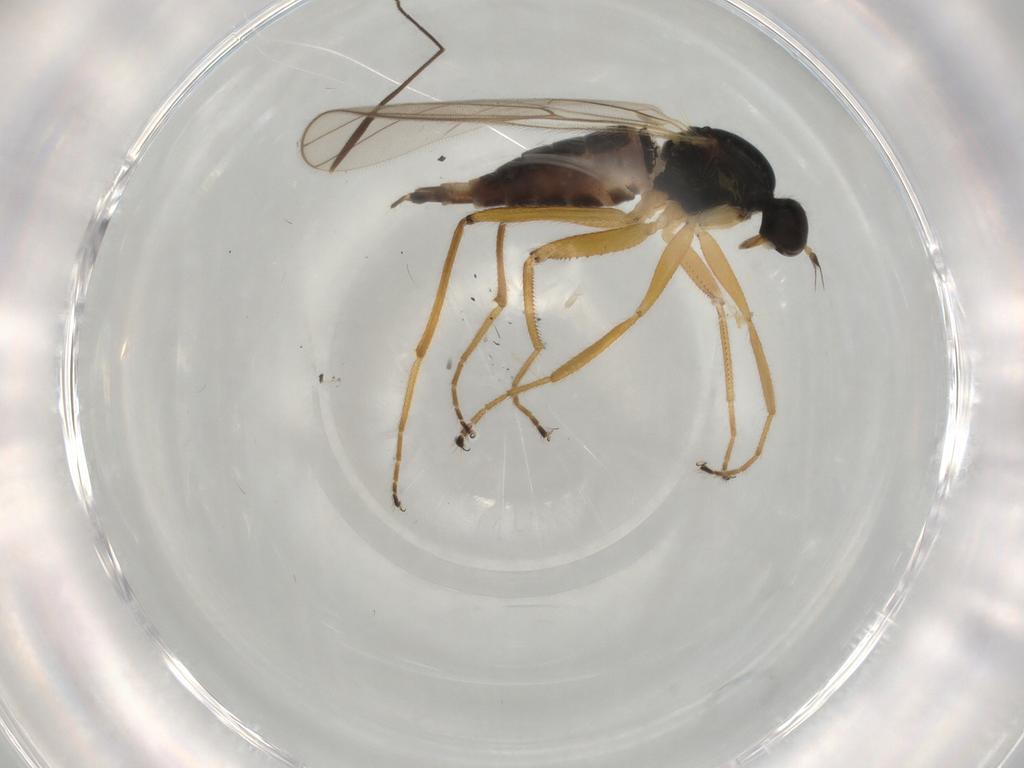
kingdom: Animalia
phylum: Arthropoda
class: Insecta
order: Diptera
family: Hybotidae
